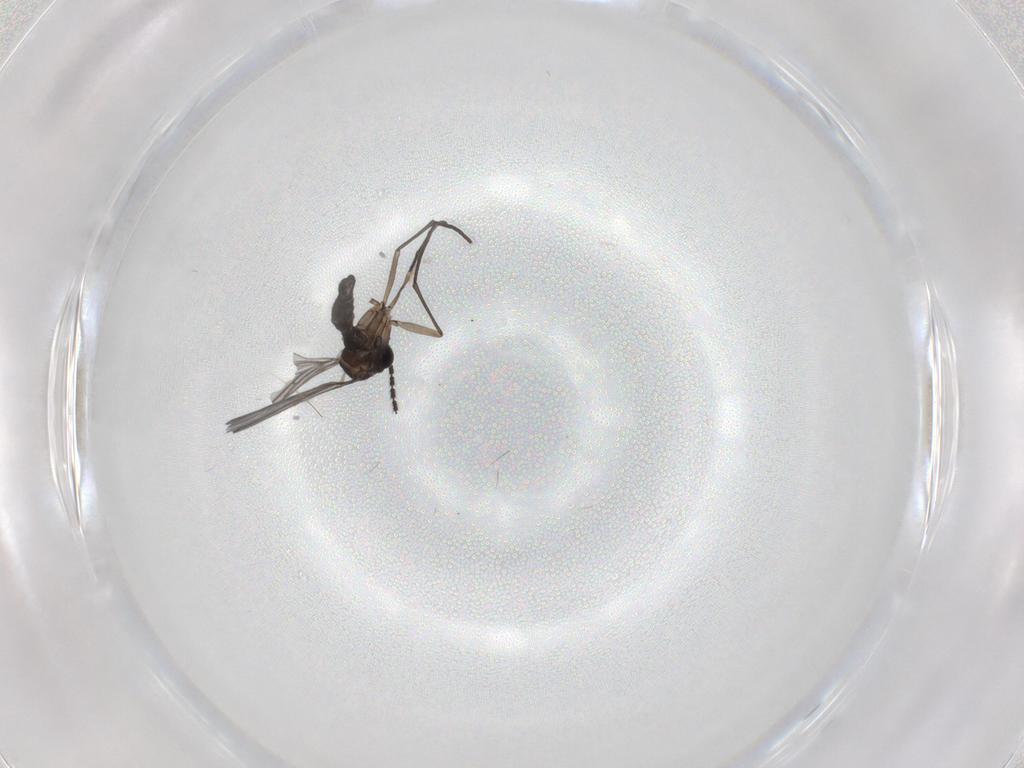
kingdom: Animalia
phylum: Arthropoda
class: Insecta
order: Diptera
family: Sciaridae
